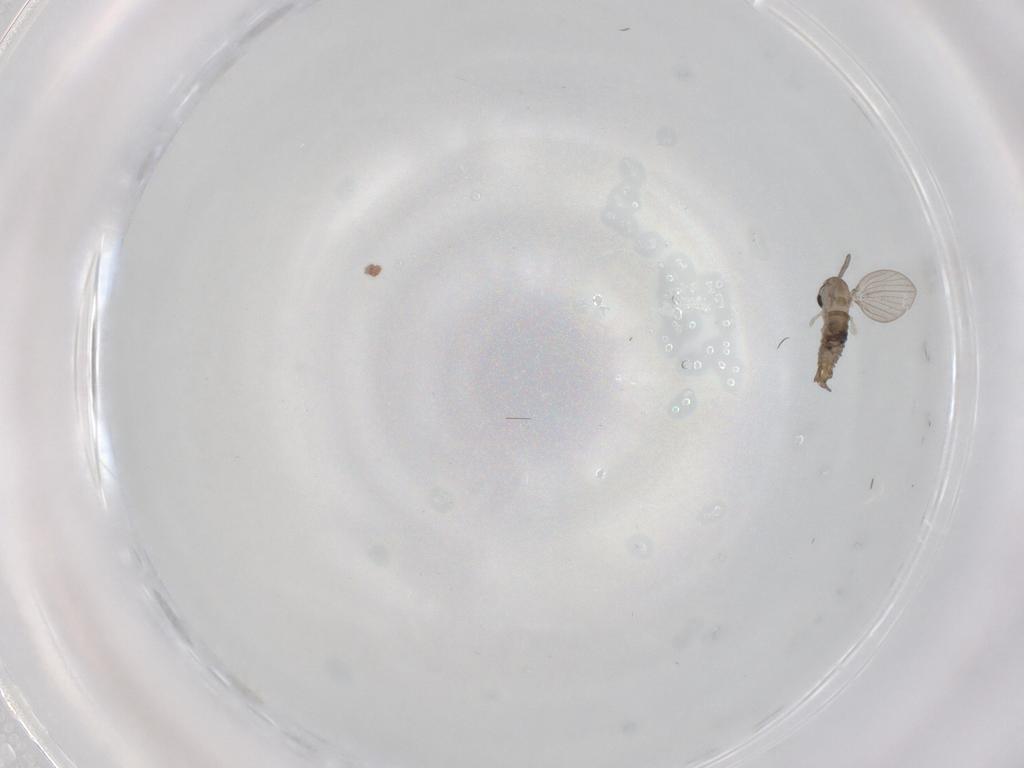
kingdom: Animalia
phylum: Arthropoda
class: Insecta
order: Diptera
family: Psychodidae
